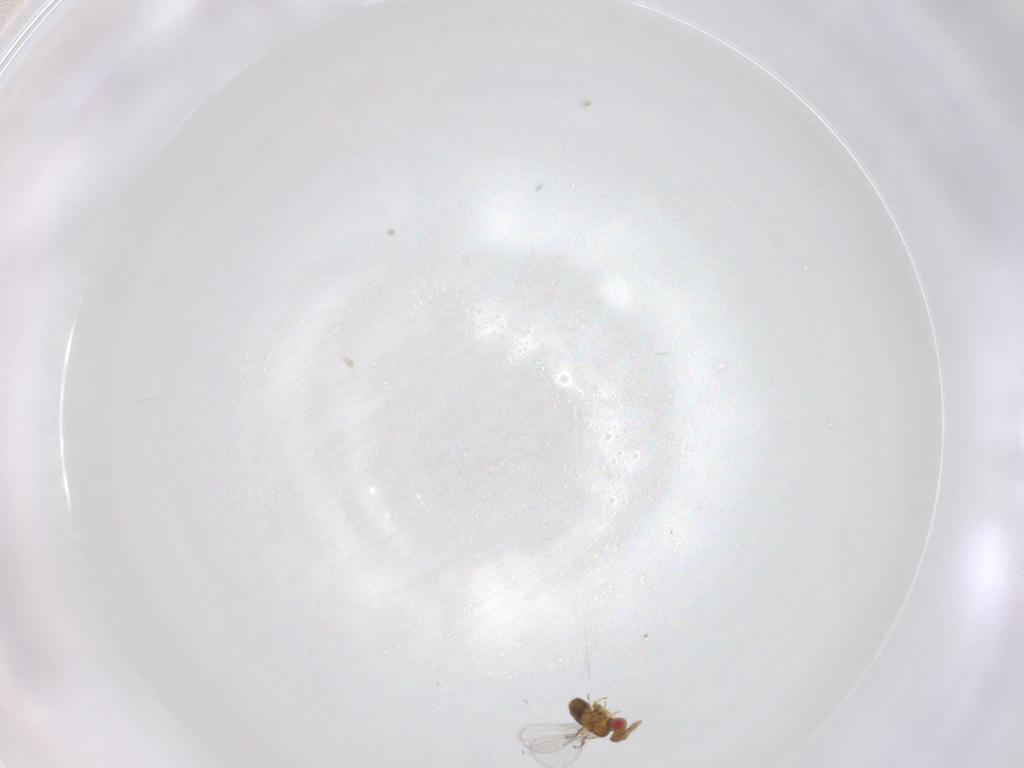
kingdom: Animalia
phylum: Arthropoda
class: Insecta
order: Hymenoptera
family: Trichogrammatidae
